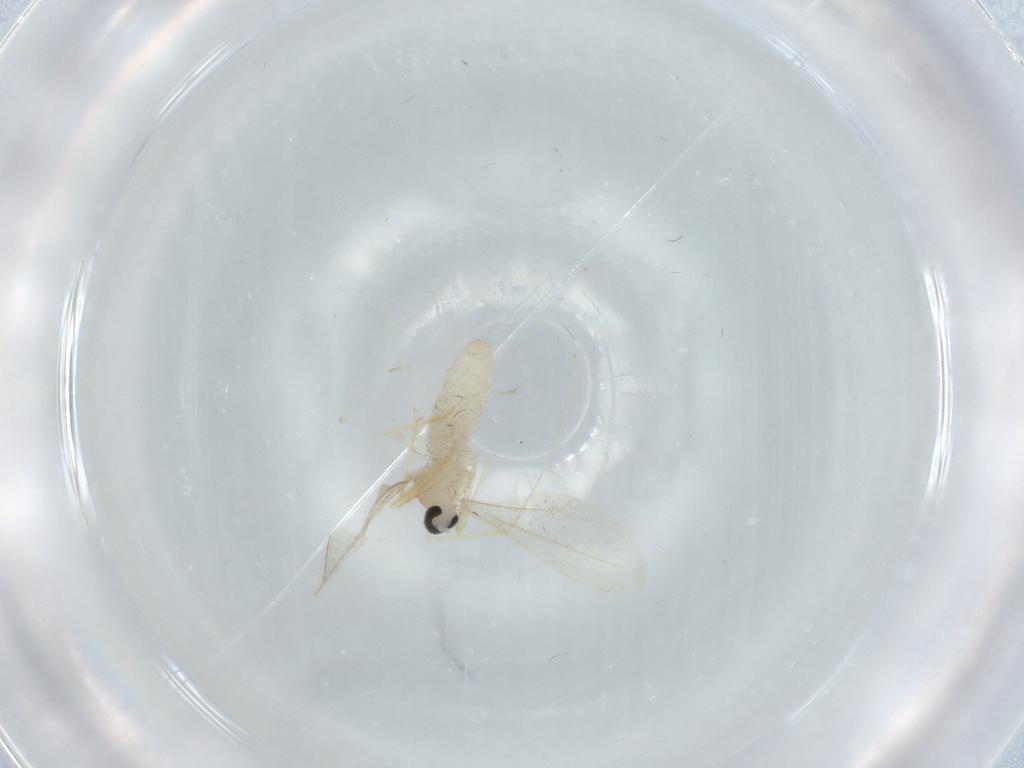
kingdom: Animalia
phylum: Arthropoda
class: Insecta
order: Diptera
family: Cecidomyiidae
